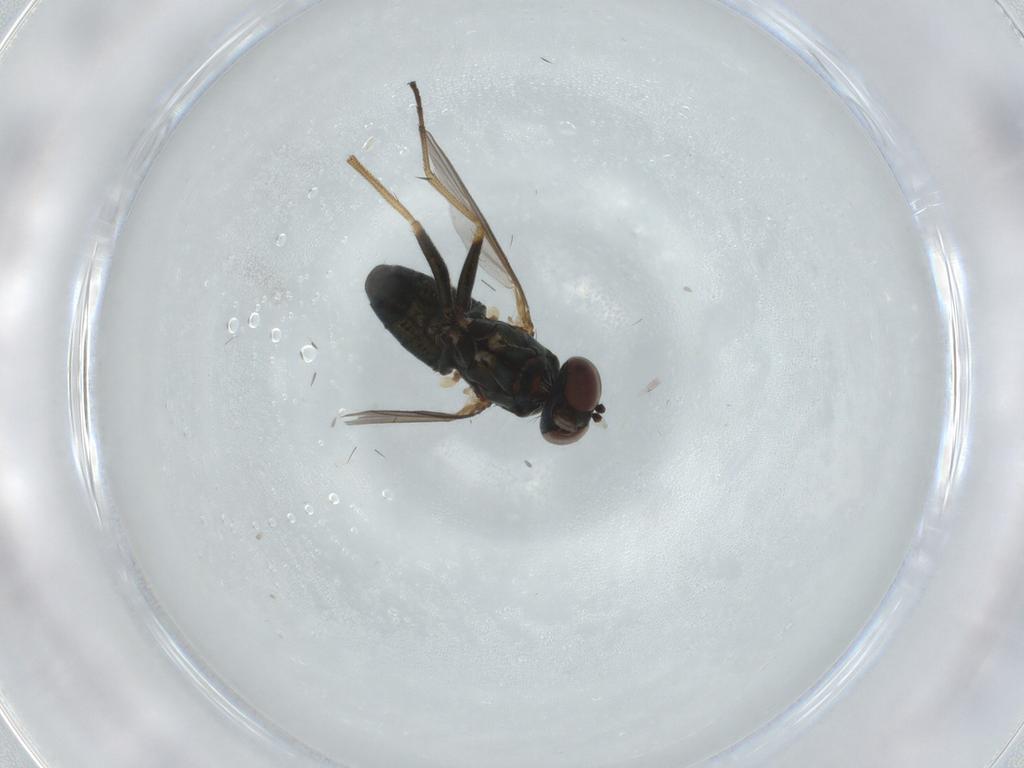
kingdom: Animalia
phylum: Arthropoda
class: Insecta
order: Diptera
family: Dolichopodidae
